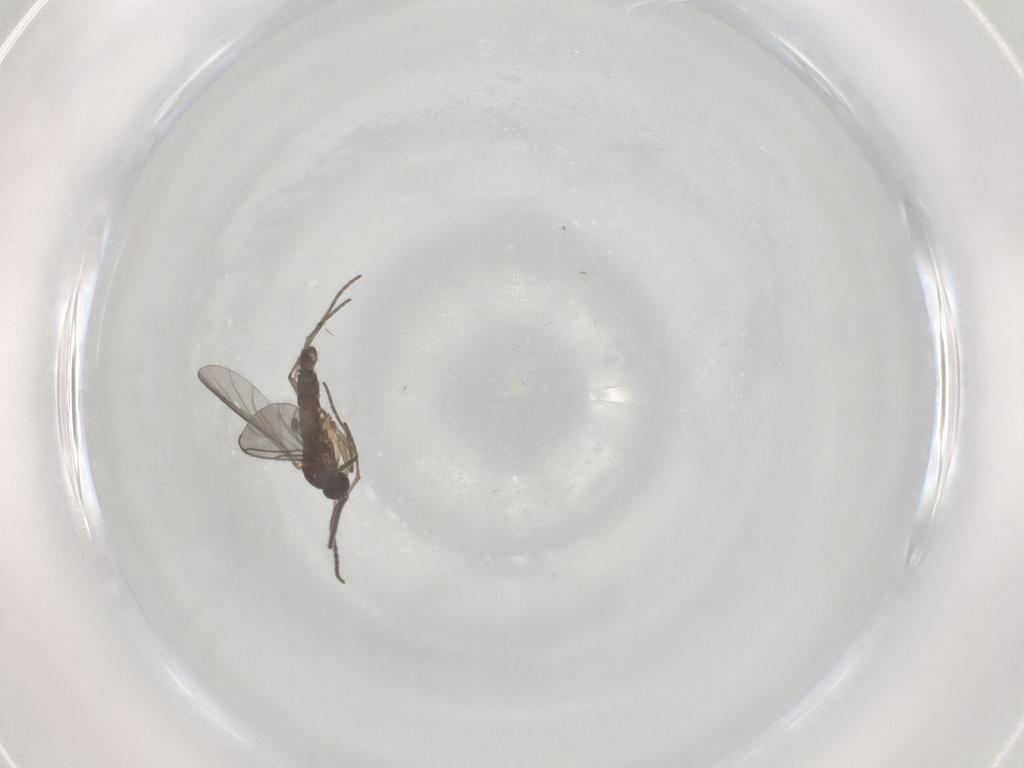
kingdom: Animalia
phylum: Arthropoda
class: Insecta
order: Diptera
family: Sciaridae
